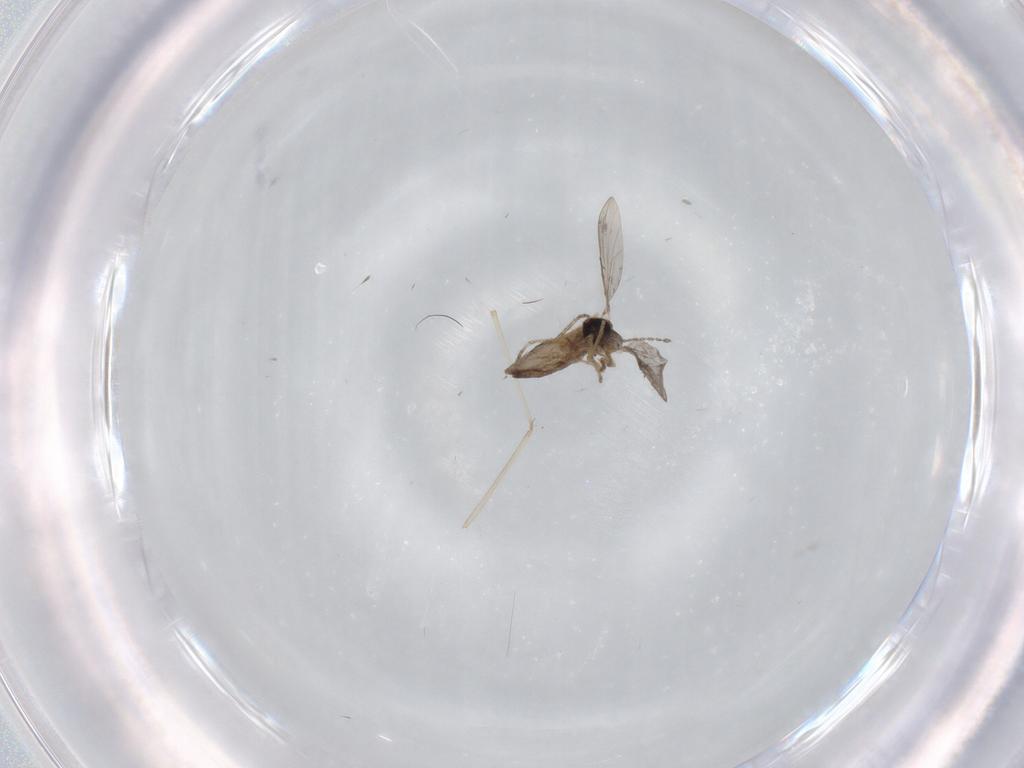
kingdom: Animalia
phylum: Arthropoda
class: Insecta
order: Diptera
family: Ceratopogonidae
